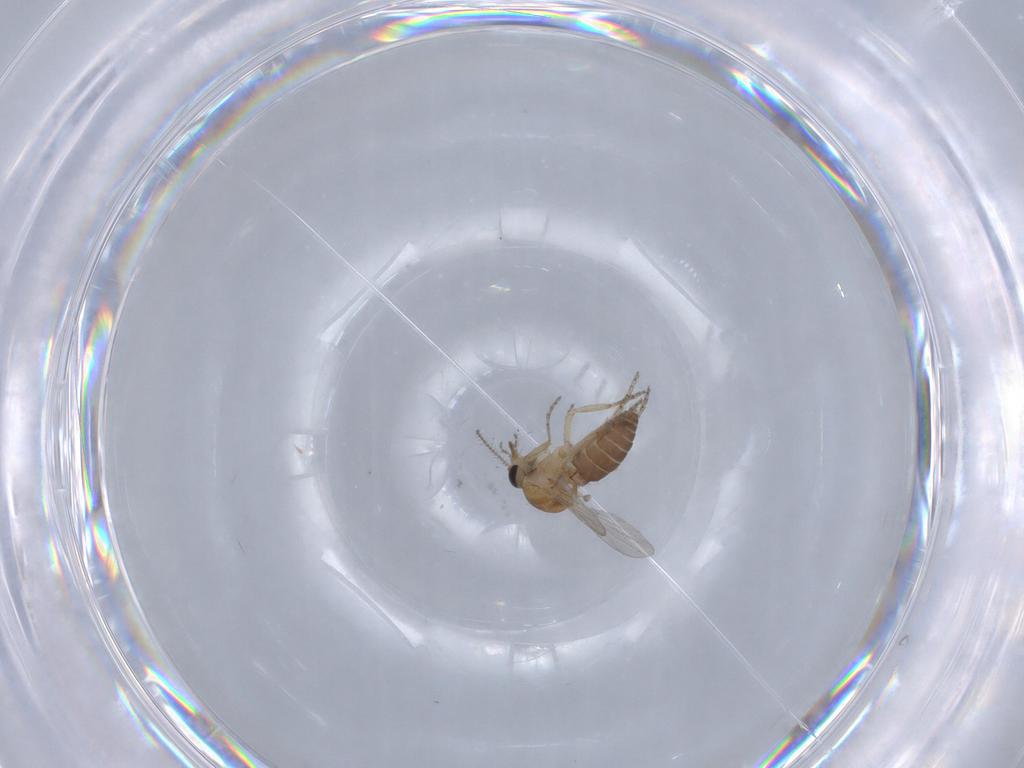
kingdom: Animalia
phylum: Arthropoda
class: Insecta
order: Diptera
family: Ceratopogonidae
